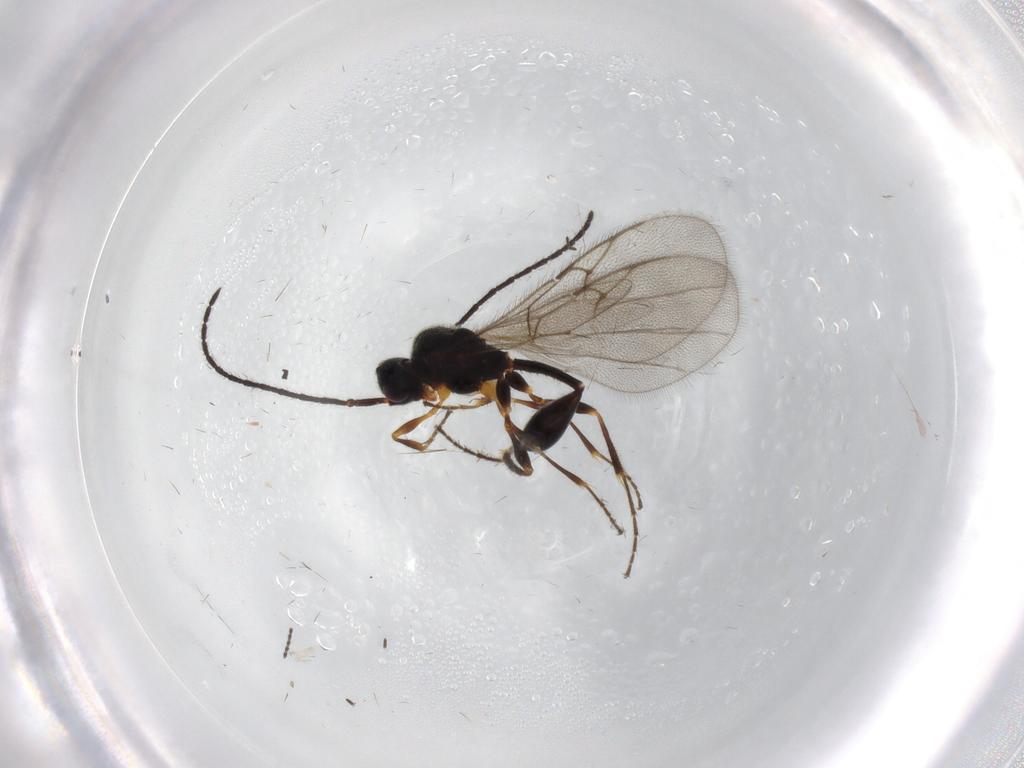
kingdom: Animalia
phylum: Arthropoda
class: Insecta
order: Hymenoptera
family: Diapriidae
